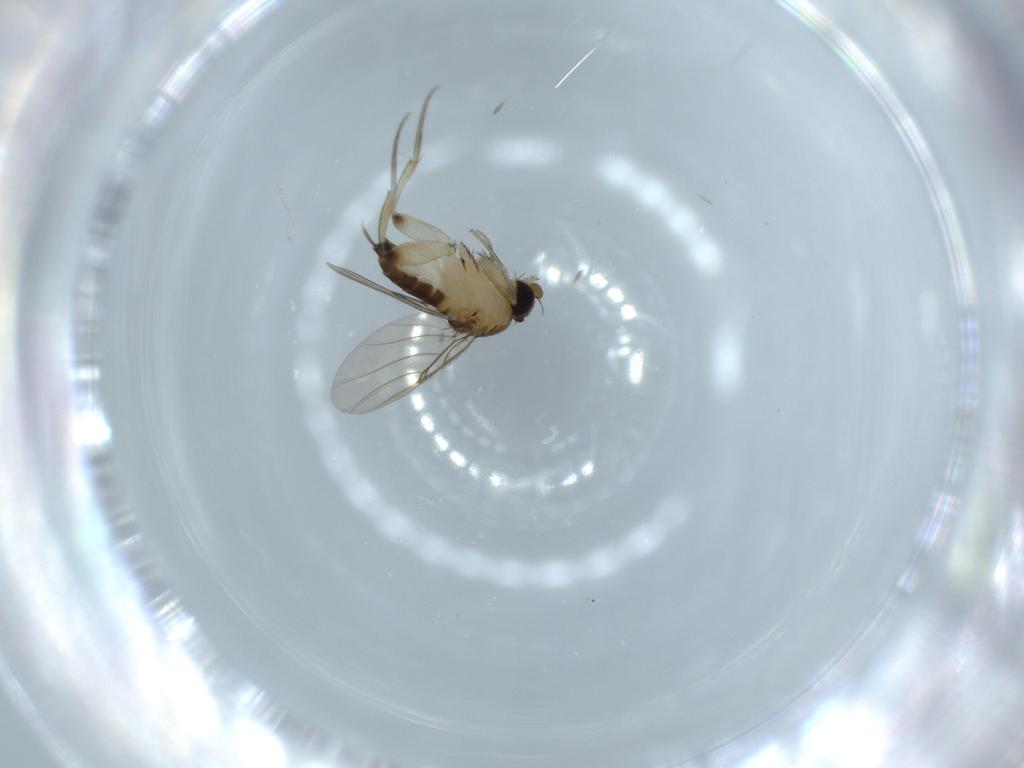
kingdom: Animalia
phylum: Arthropoda
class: Insecta
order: Diptera
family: Phoridae
